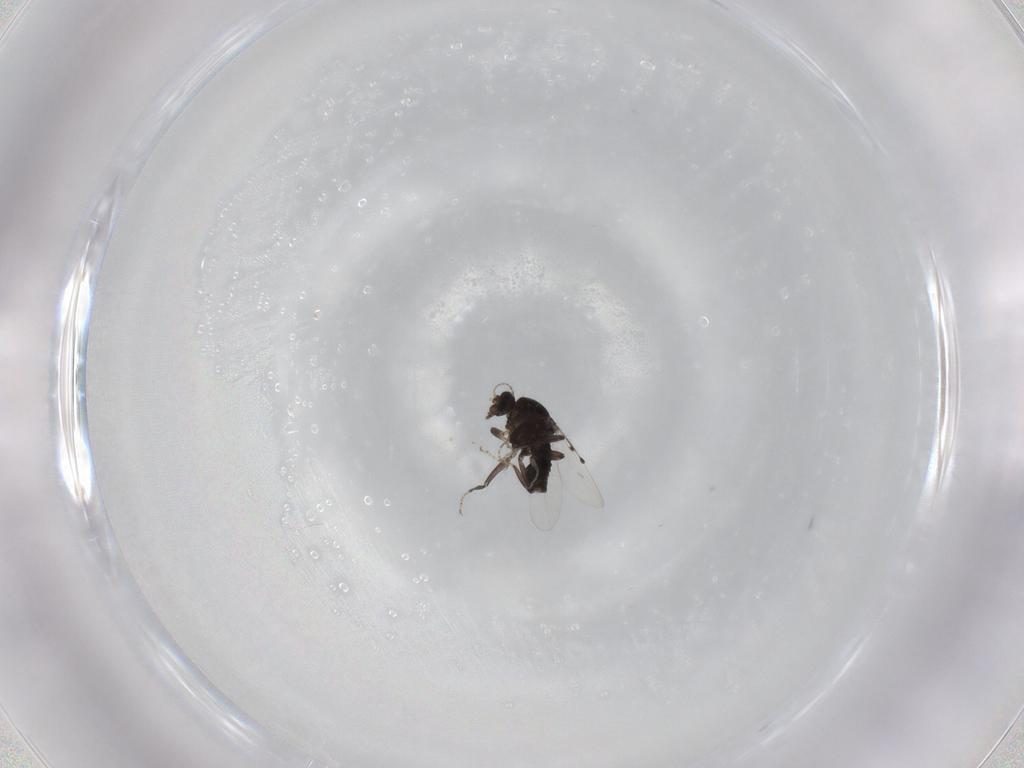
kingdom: Animalia
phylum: Arthropoda
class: Insecta
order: Diptera
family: Ceratopogonidae
